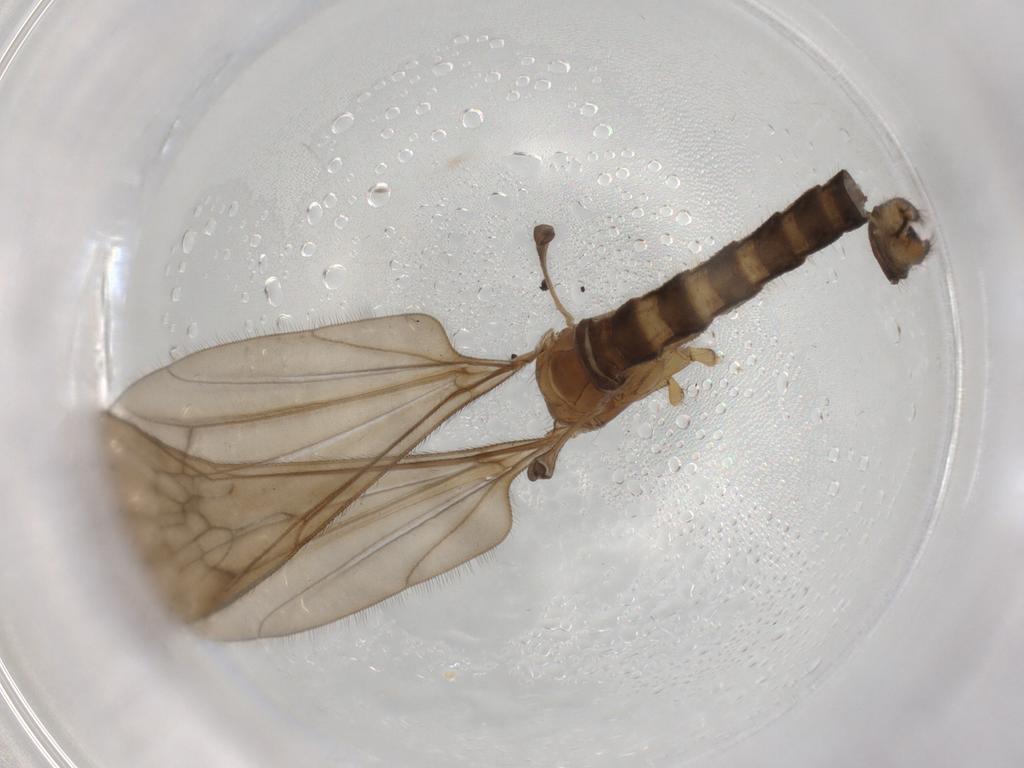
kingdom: Animalia
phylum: Arthropoda
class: Insecta
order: Diptera
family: Limoniidae
